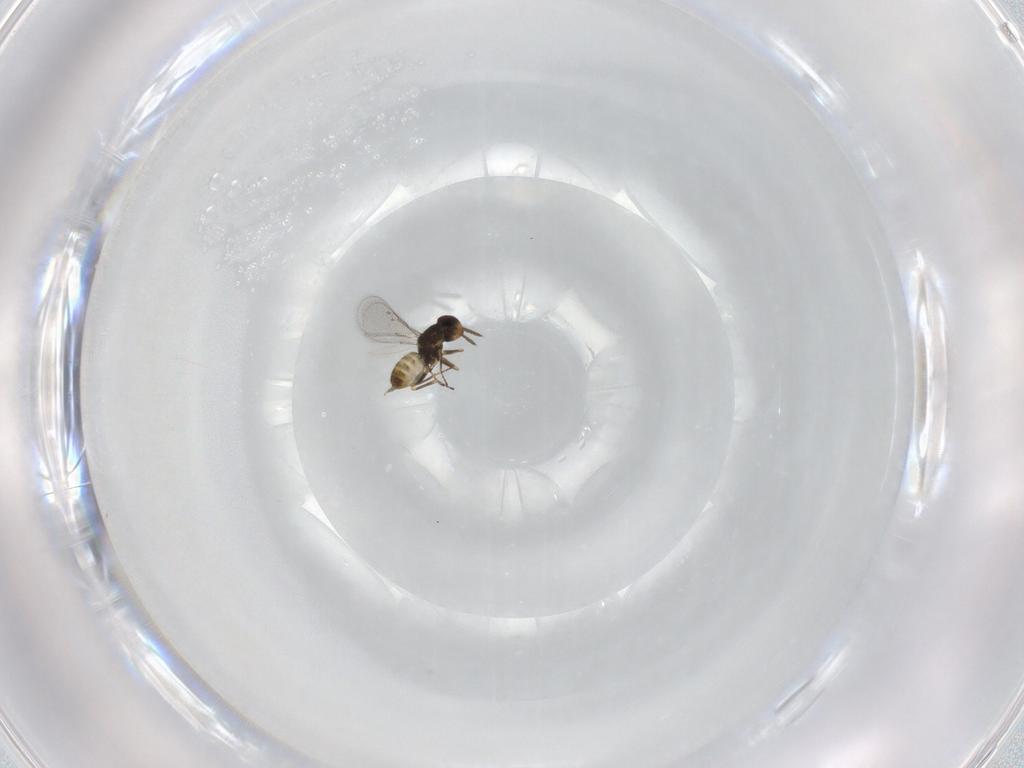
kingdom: Animalia
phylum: Arthropoda
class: Insecta
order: Hymenoptera
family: Eulophidae
